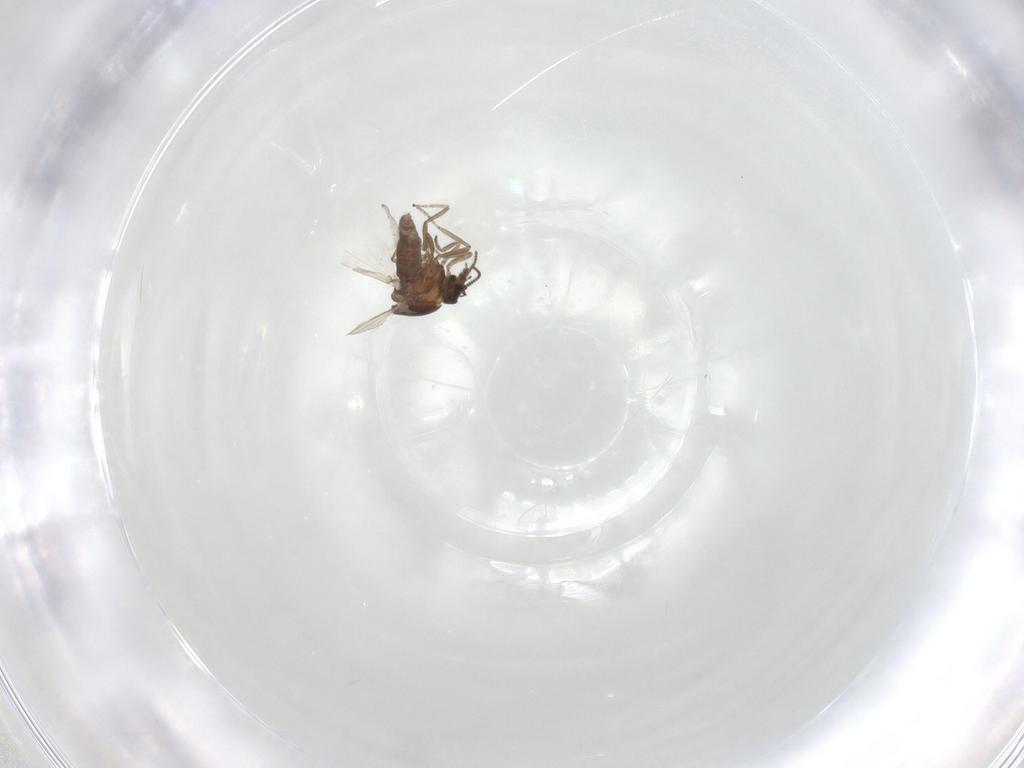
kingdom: Animalia
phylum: Arthropoda
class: Insecta
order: Diptera
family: Ceratopogonidae
